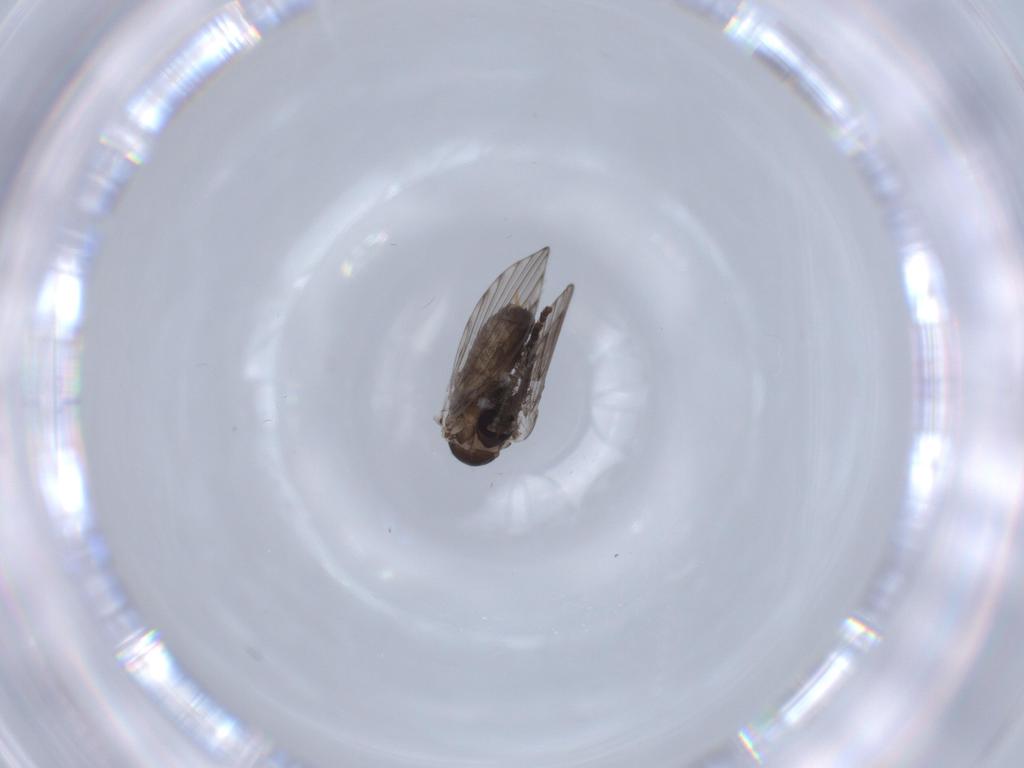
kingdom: Animalia
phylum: Arthropoda
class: Insecta
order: Diptera
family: Psychodidae
